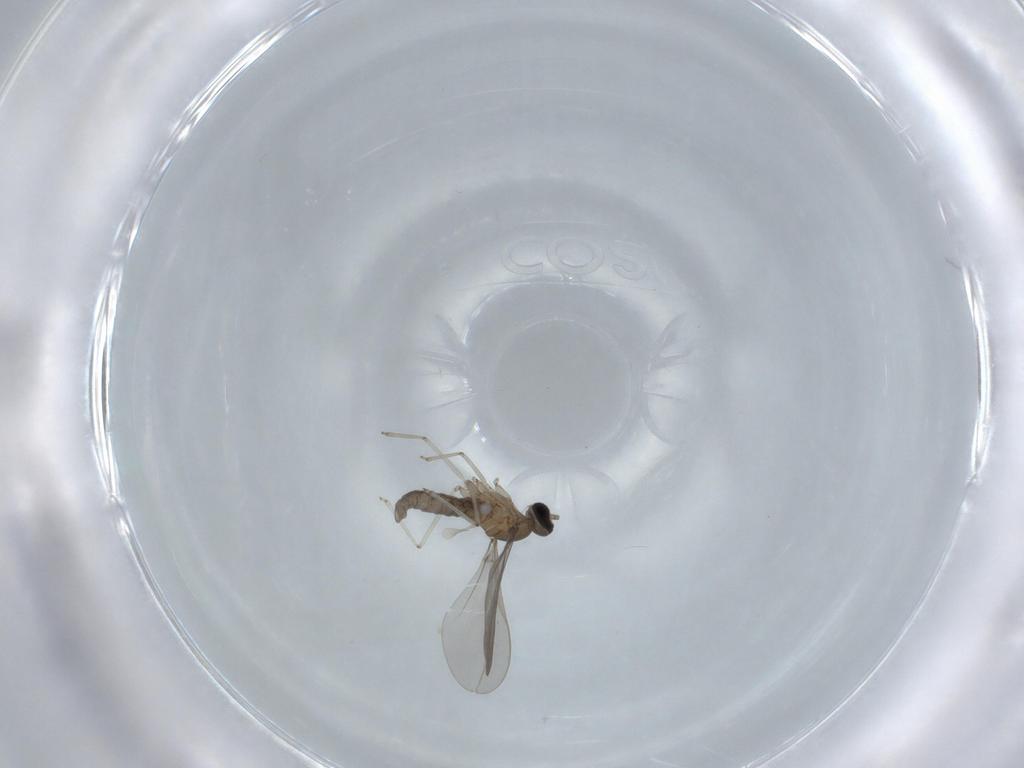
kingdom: Animalia
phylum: Arthropoda
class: Insecta
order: Diptera
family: Cecidomyiidae
